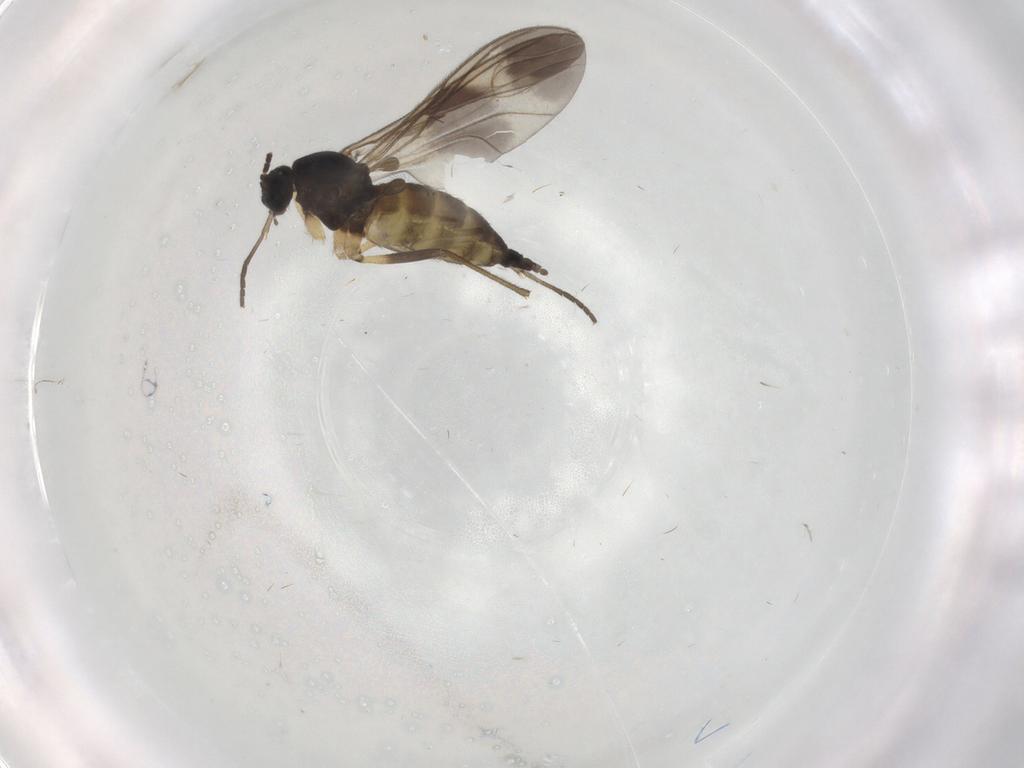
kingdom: Animalia
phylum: Arthropoda
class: Insecta
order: Diptera
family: Sciaridae
